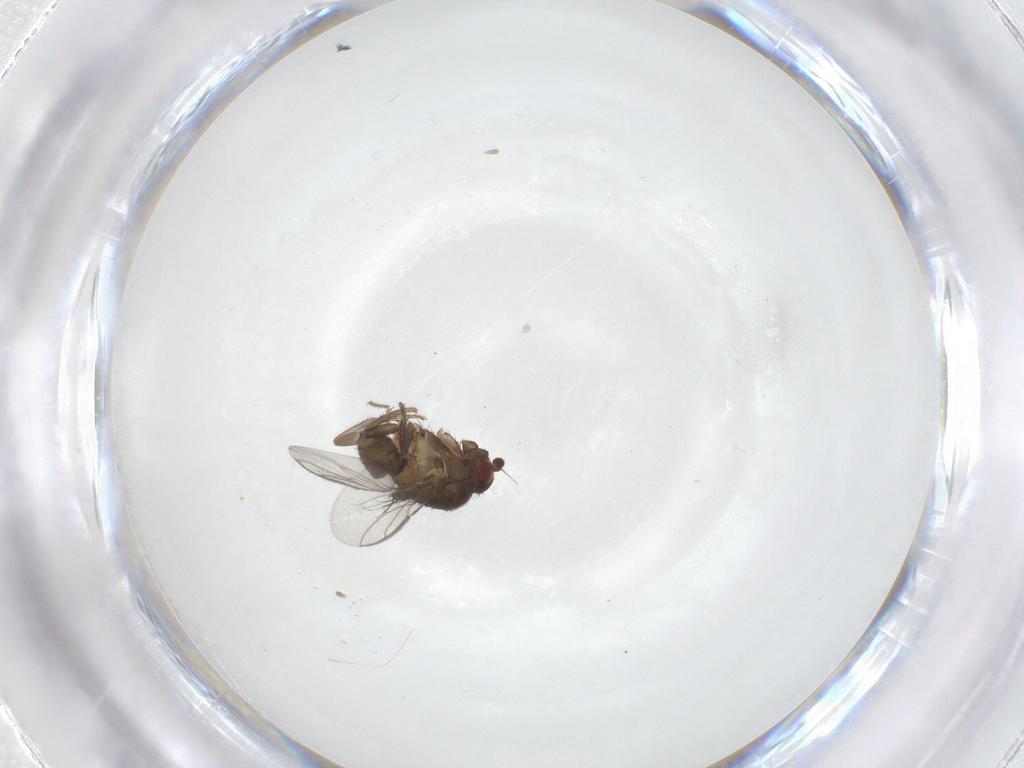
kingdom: Animalia
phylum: Arthropoda
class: Insecta
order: Diptera
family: Sphaeroceridae
